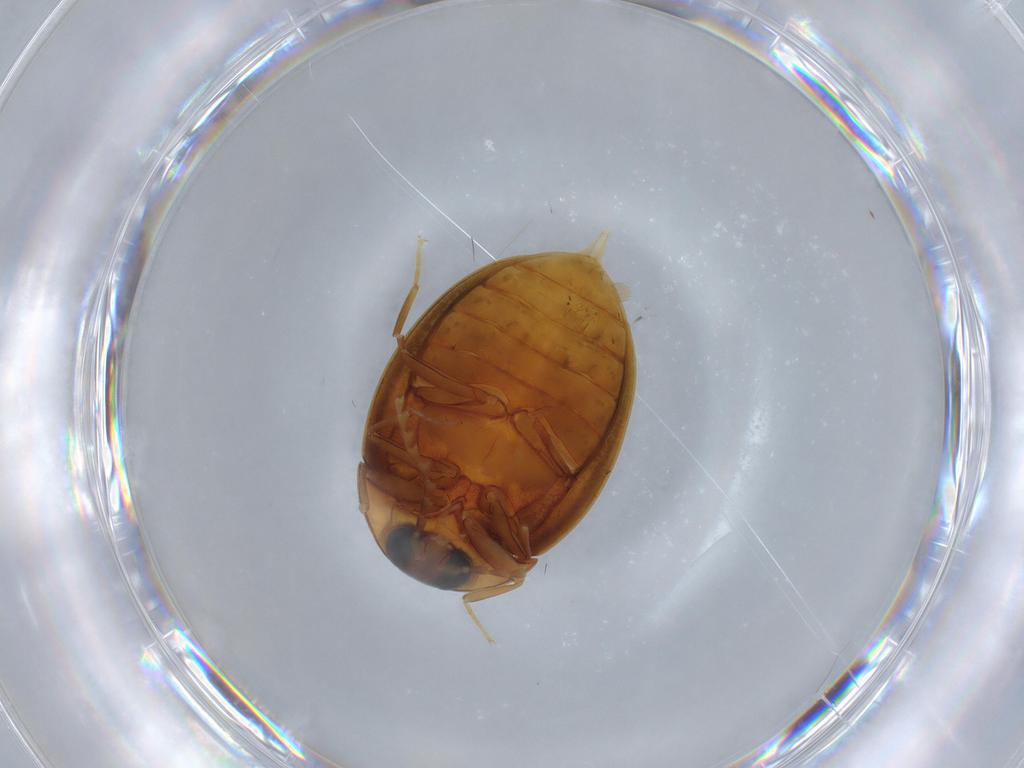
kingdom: Animalia
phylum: Arthropoda
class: Insecta
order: Coleoptera
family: Psephenidae
